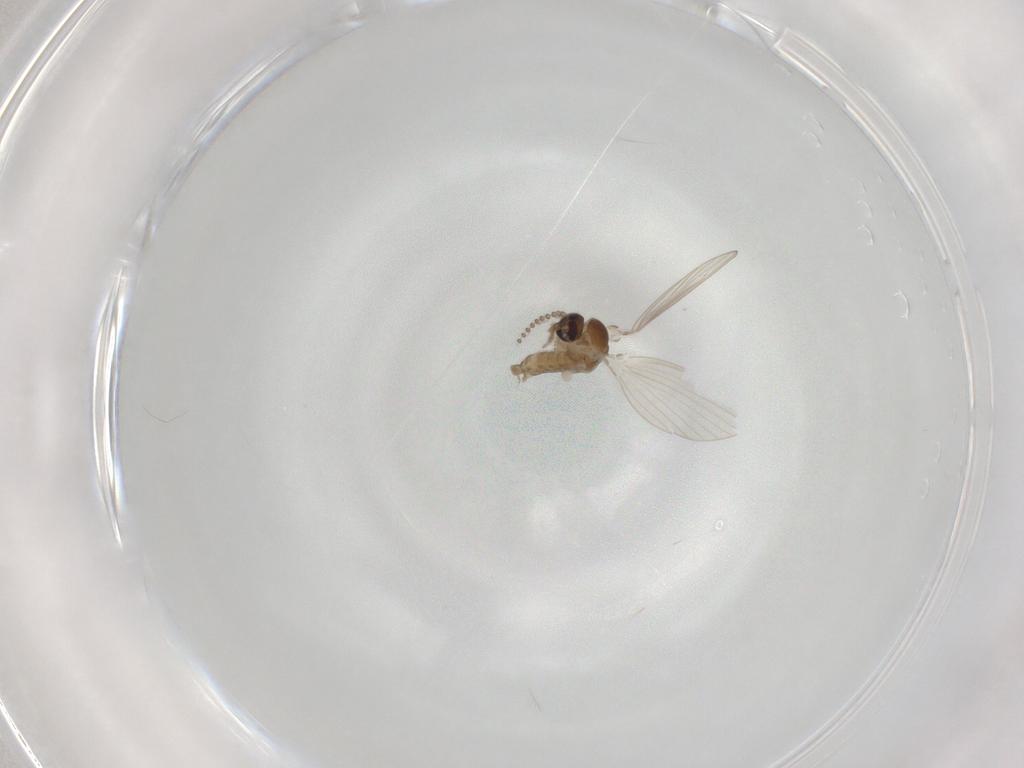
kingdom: Animalia
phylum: Arthropoda
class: Insecta
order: Diptera
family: Psychodidae
